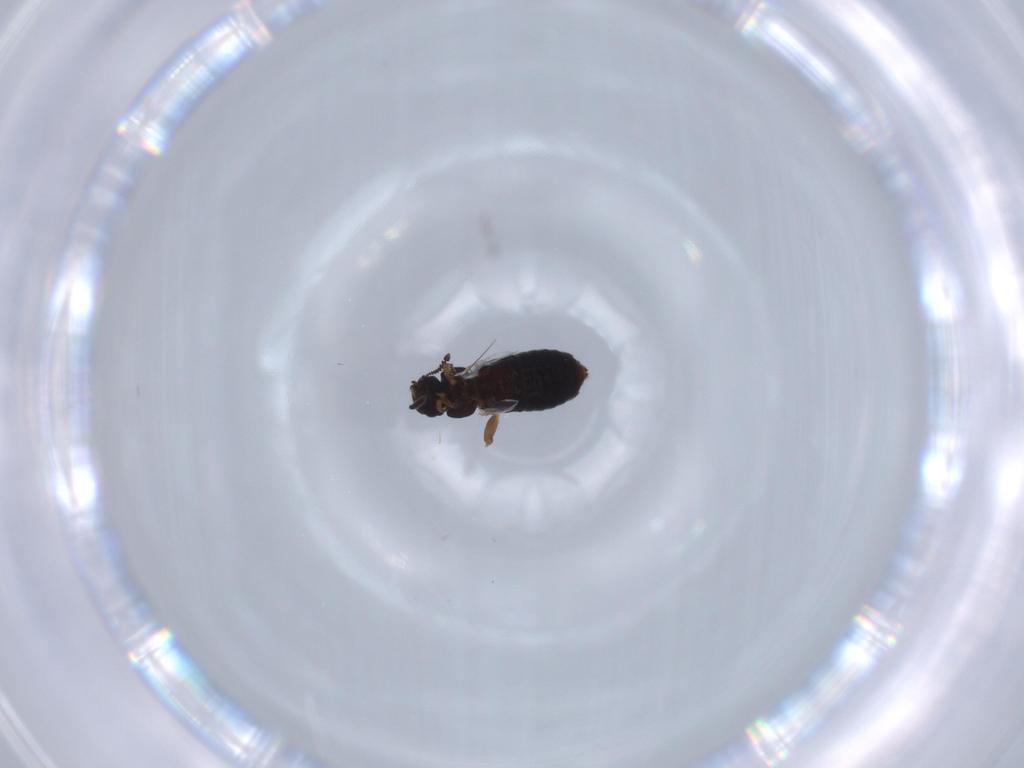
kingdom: Animalia
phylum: Arthropoda
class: Insecta
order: Coleoptera
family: Staphylinidae
